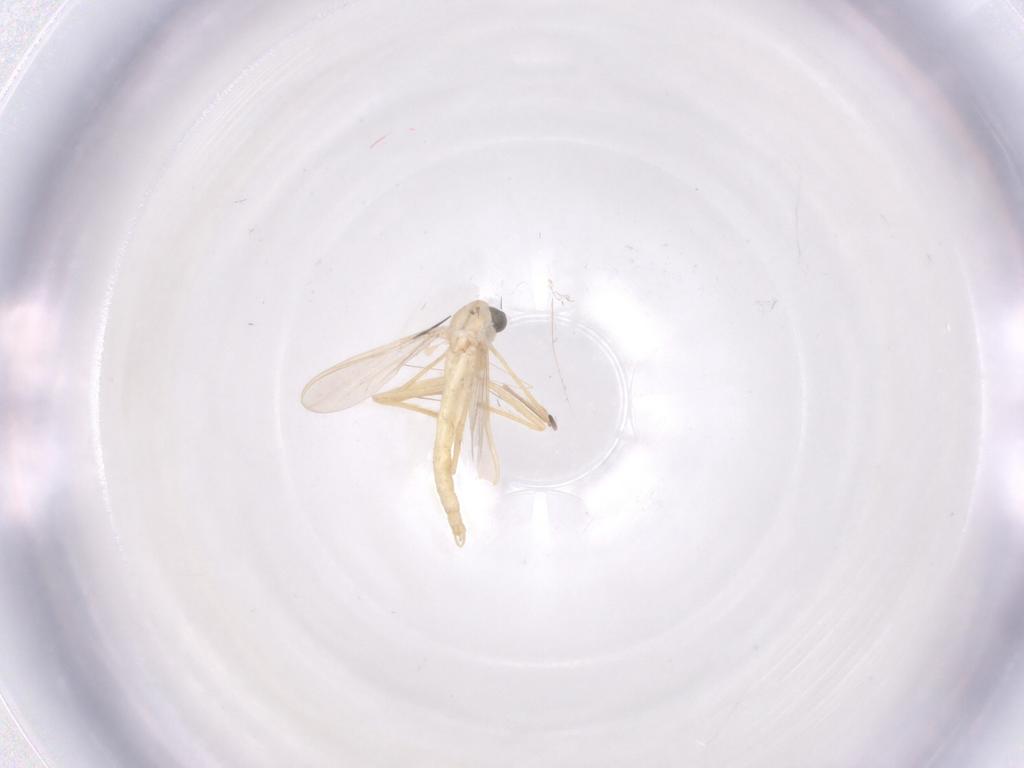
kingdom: Animalia
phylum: Arthropoda
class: Insecta
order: Diptera
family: Chironomidae
